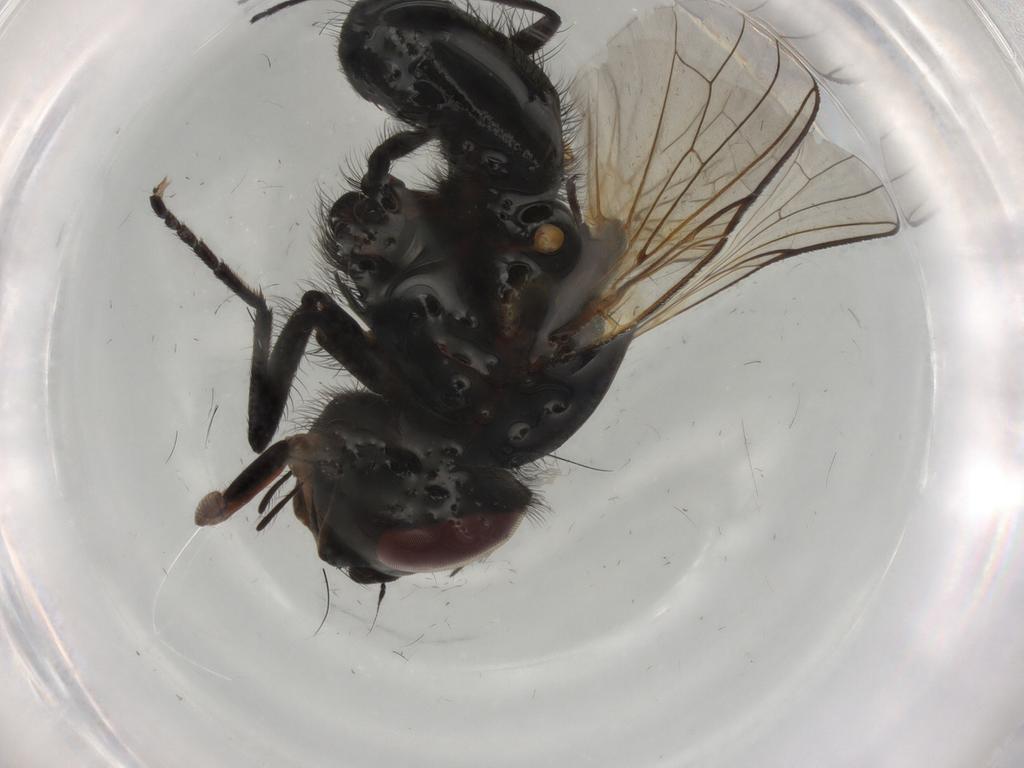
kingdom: Animalia
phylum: Arthropoda
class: Insecta
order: Diptera
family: Anthomyiidae
